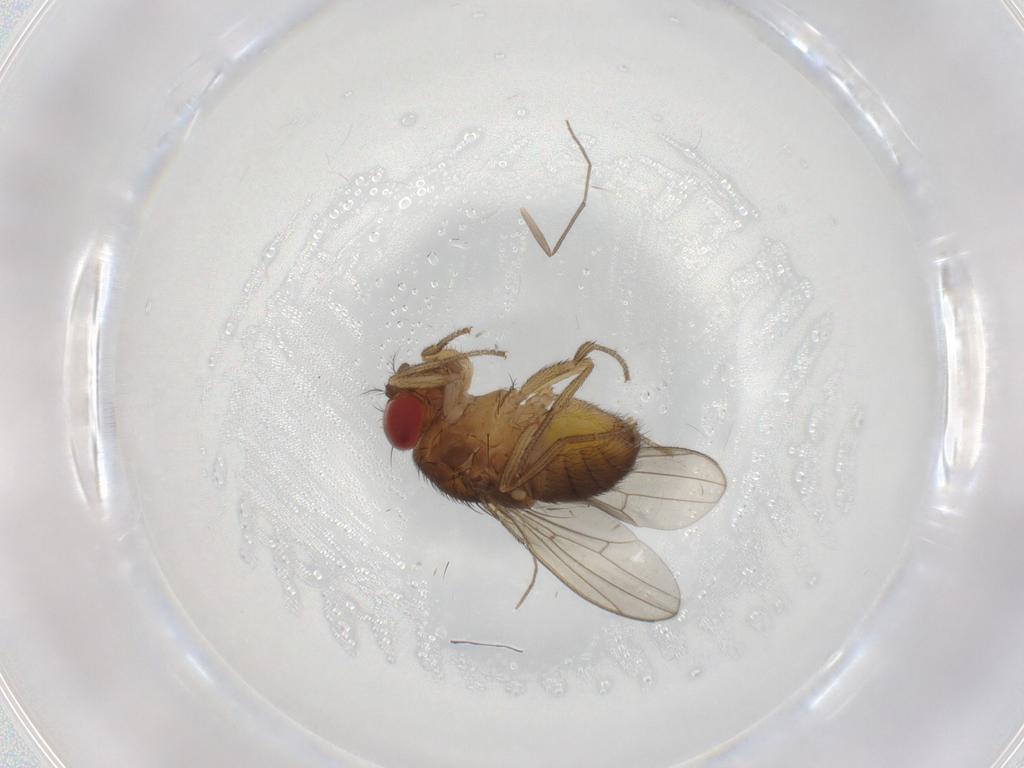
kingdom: Animalia
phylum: Arthropoda
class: Insecta
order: Diptera
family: Drosophilidae
